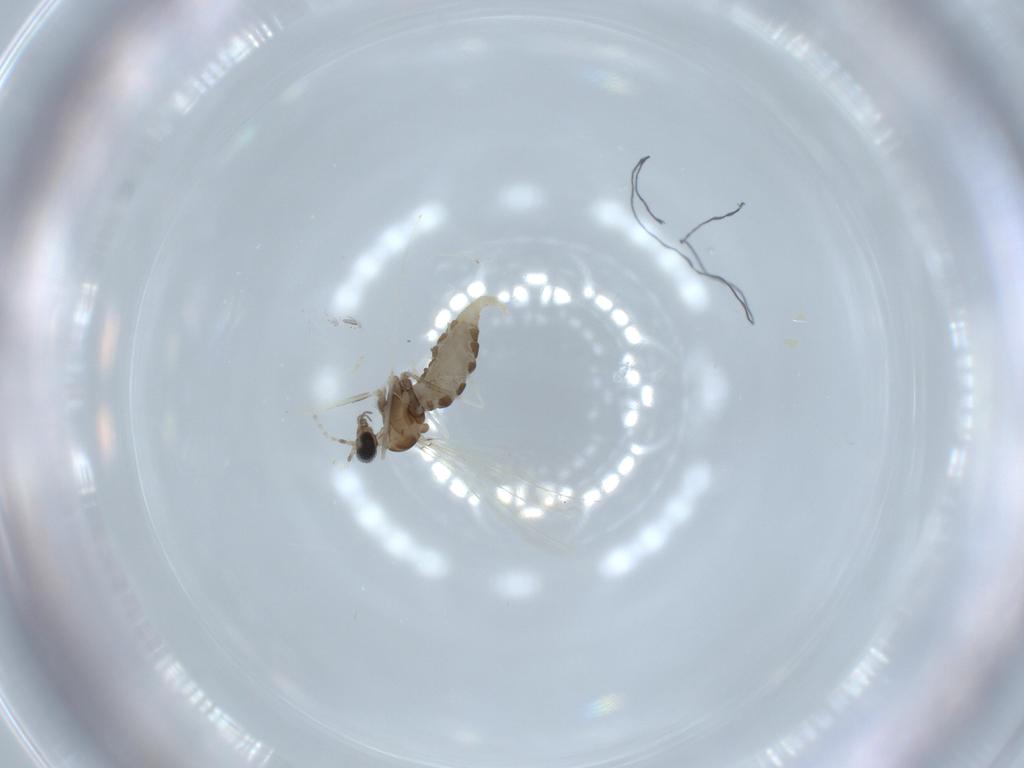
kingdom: Animalia
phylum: Arthropoda
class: Insecta
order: Diptera
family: Cecidomyiidae
